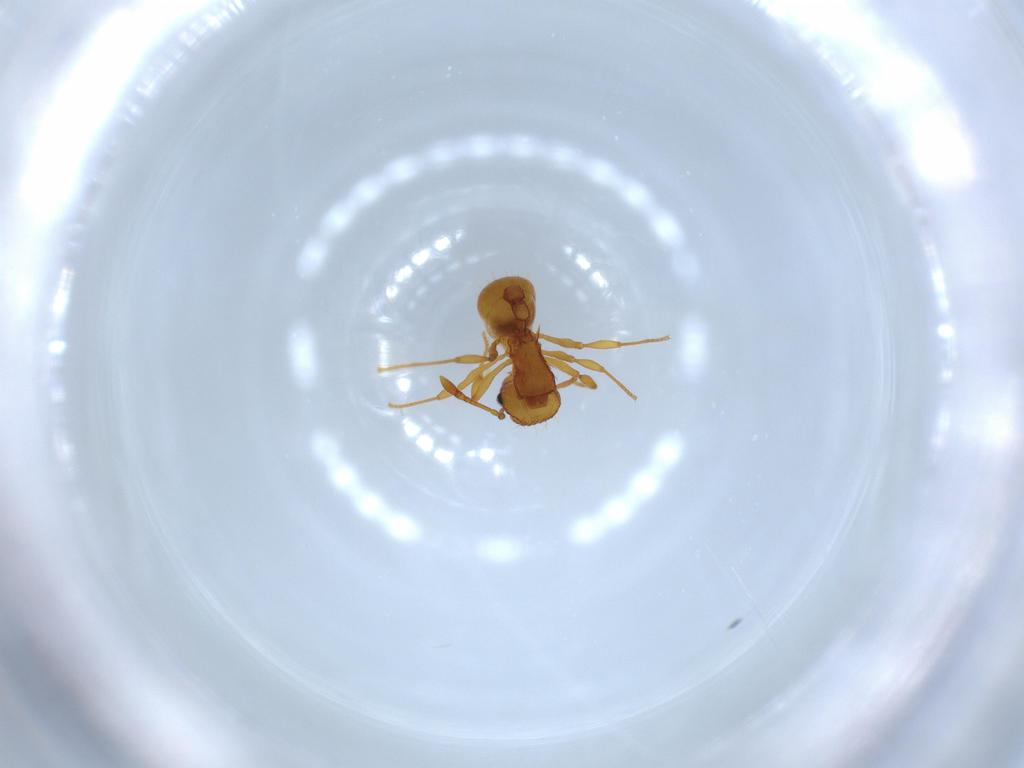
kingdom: Animalia
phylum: Arthropoda
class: Insecta
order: Hymenoptera
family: Formicidae
